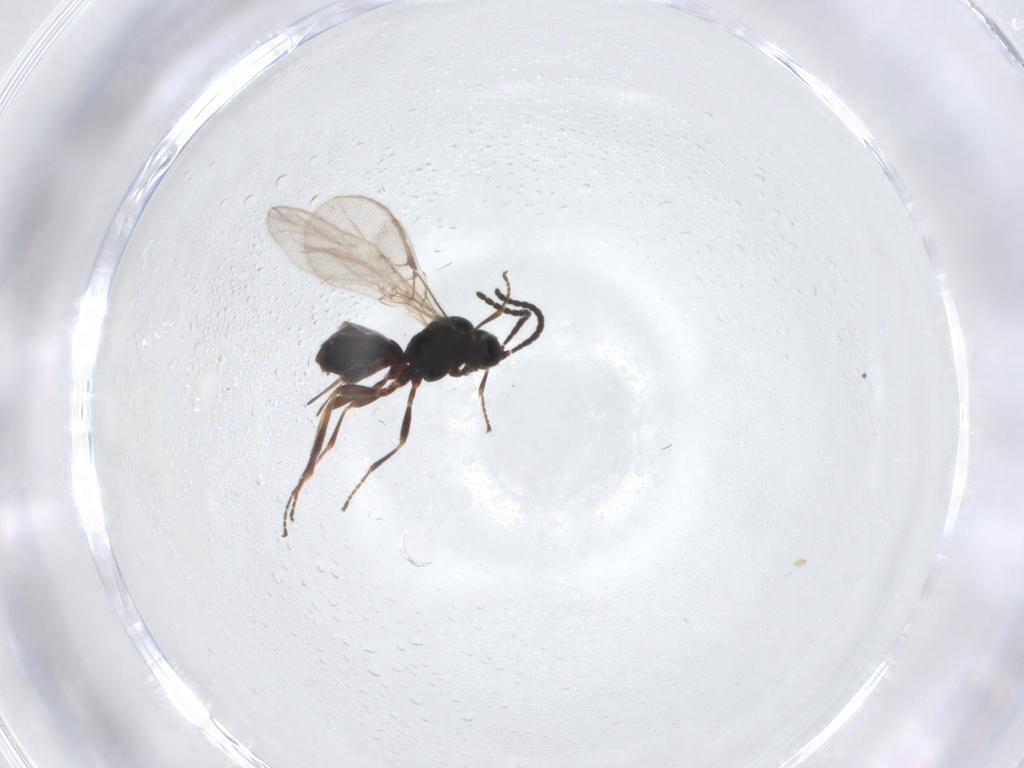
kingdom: Animalia
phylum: Arthropoda
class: Insecta
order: Hymenoptera
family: Braconidae
